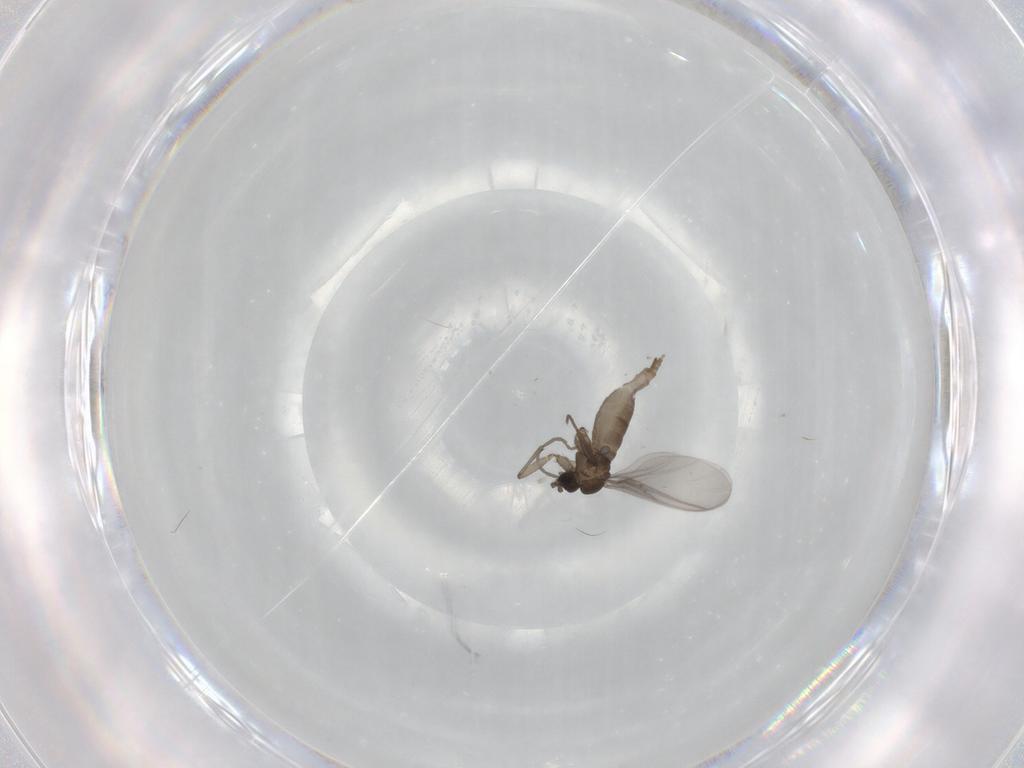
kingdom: Animalia
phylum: Arthropoda
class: Insecta
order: Diptera
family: Sciaridae
